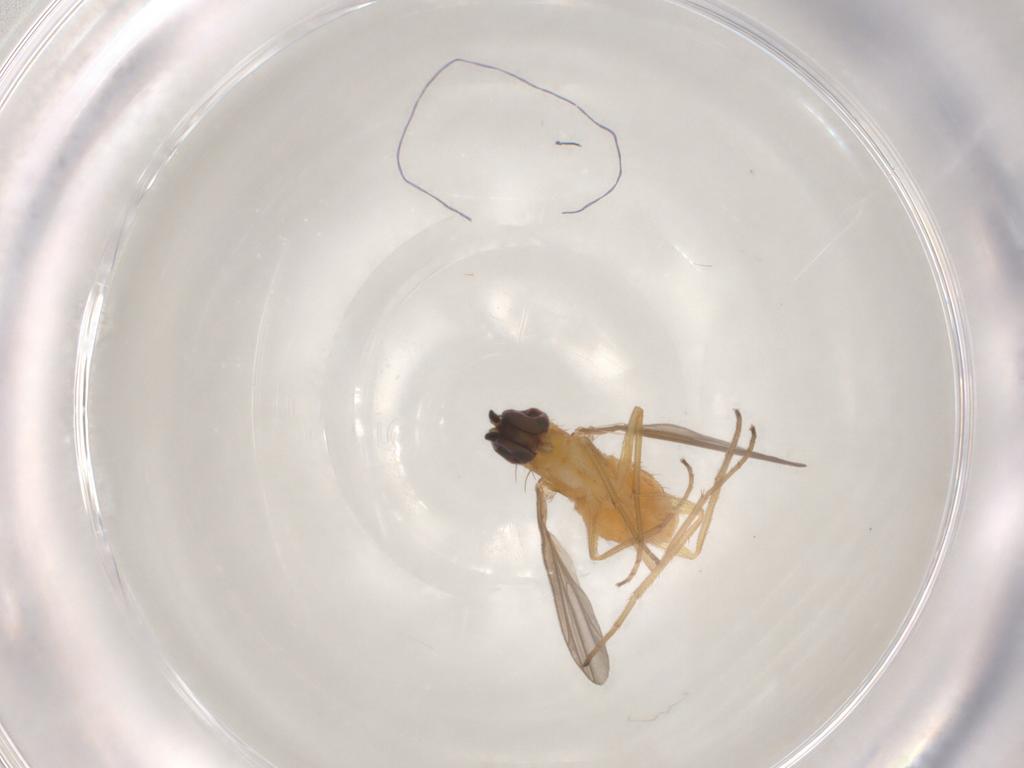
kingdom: Animalia
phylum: Arthropoda
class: Insecta
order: Diptera
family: Dolichopodidae
